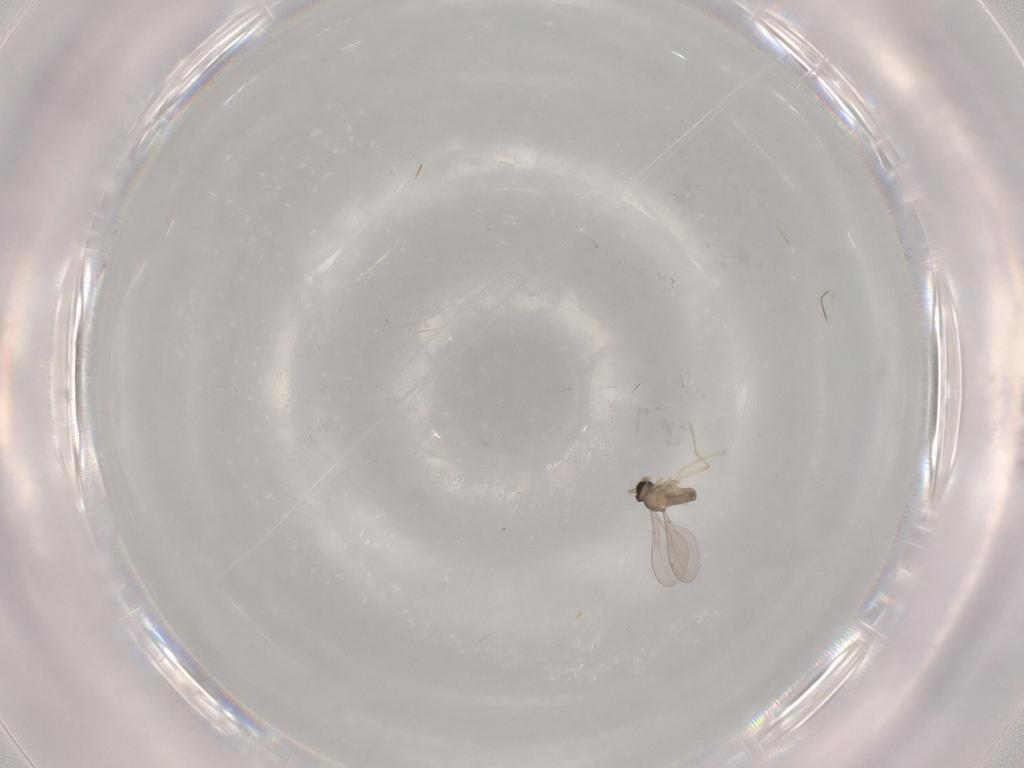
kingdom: Animalia
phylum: Arthropoda
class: Insecta
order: Diptera
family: Cecidomyiidae
